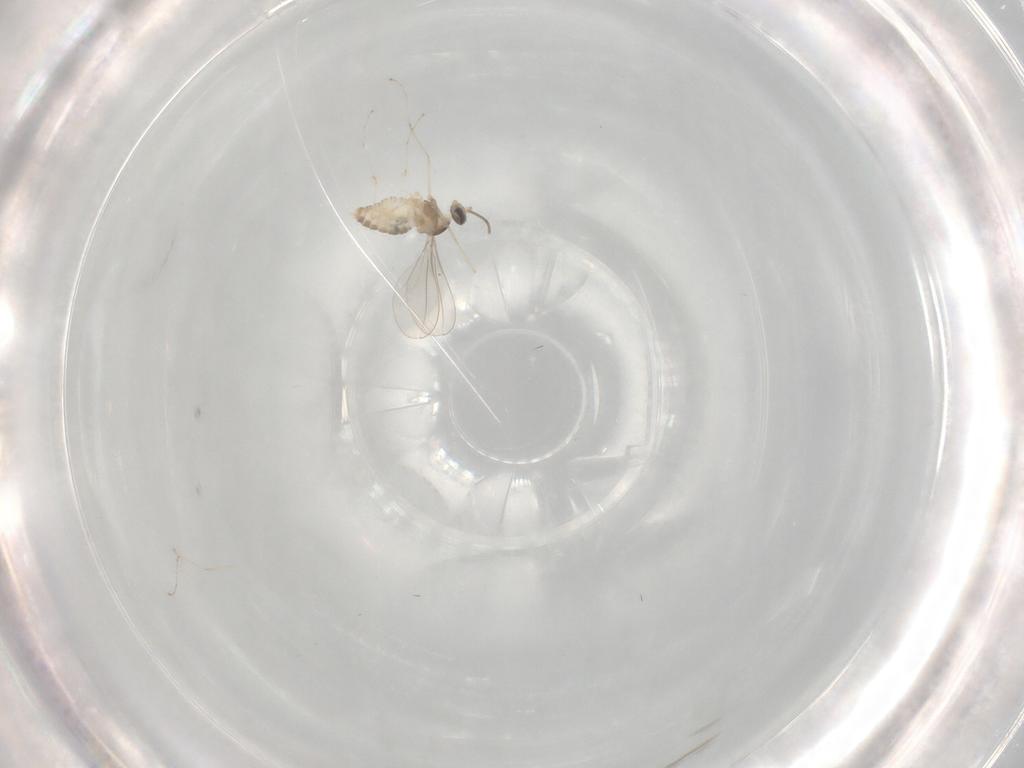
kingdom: Animalia
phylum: Arthropoda
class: Insecta
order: Diptera
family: Cecidomyiidae
